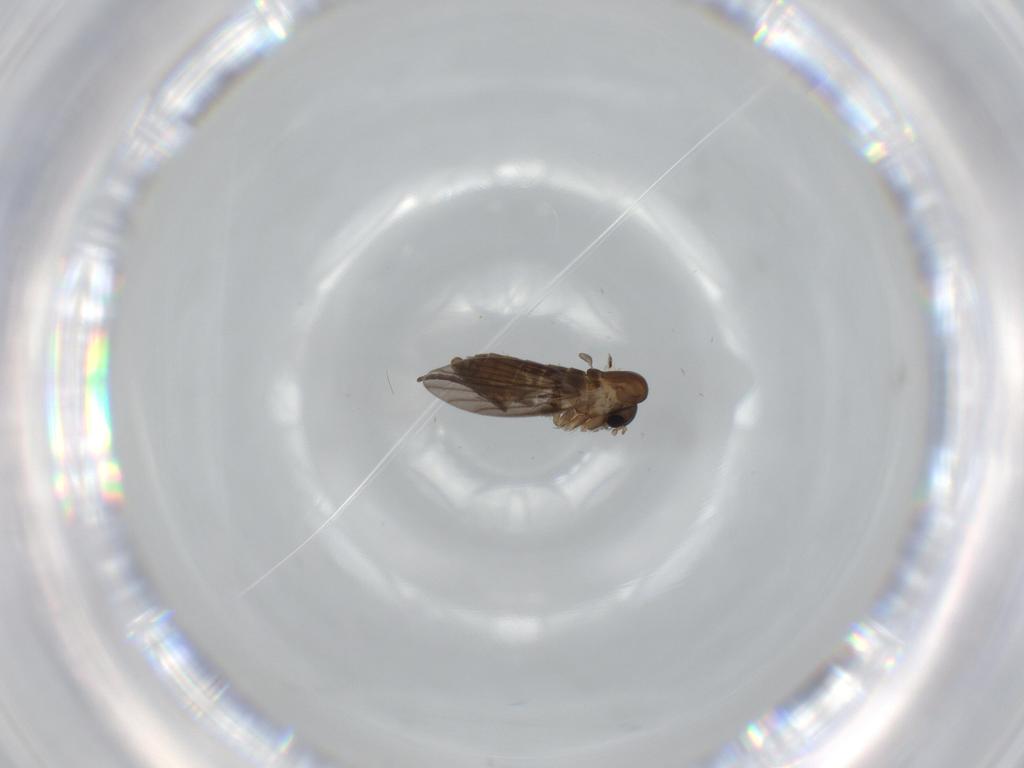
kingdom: Animalia
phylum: Arthropoda
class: Insecta
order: Diptera
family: Psychodidae
